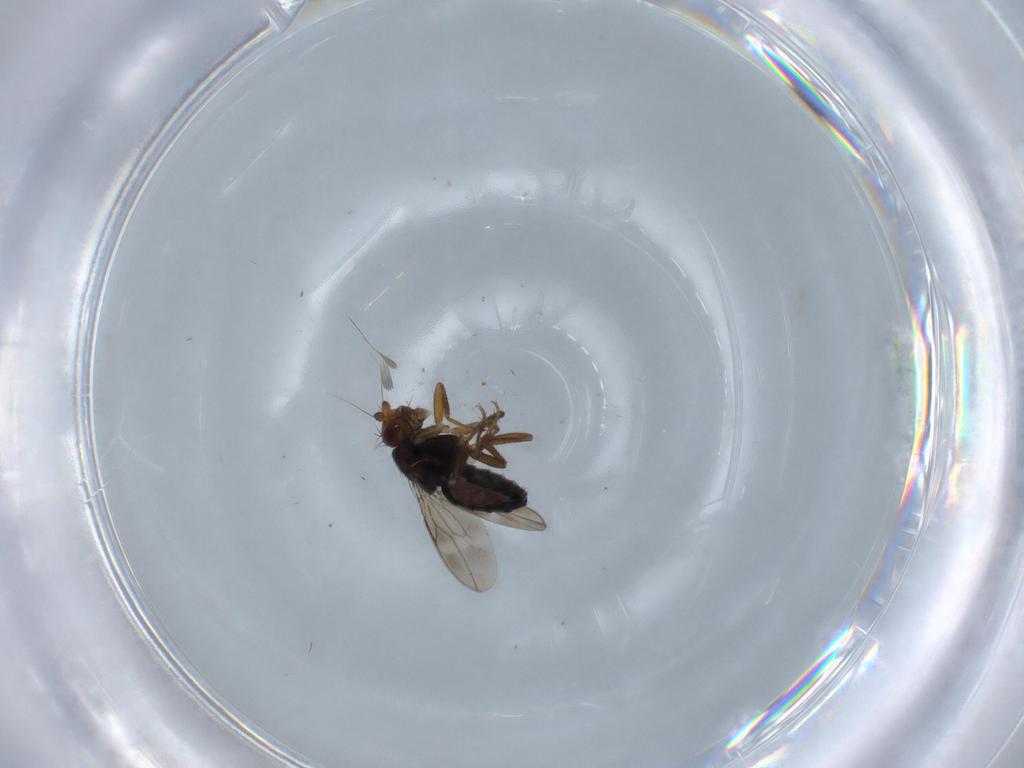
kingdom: Animalia
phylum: Arthropoda
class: Insecta
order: Diptera
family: Sphaeroceridae
